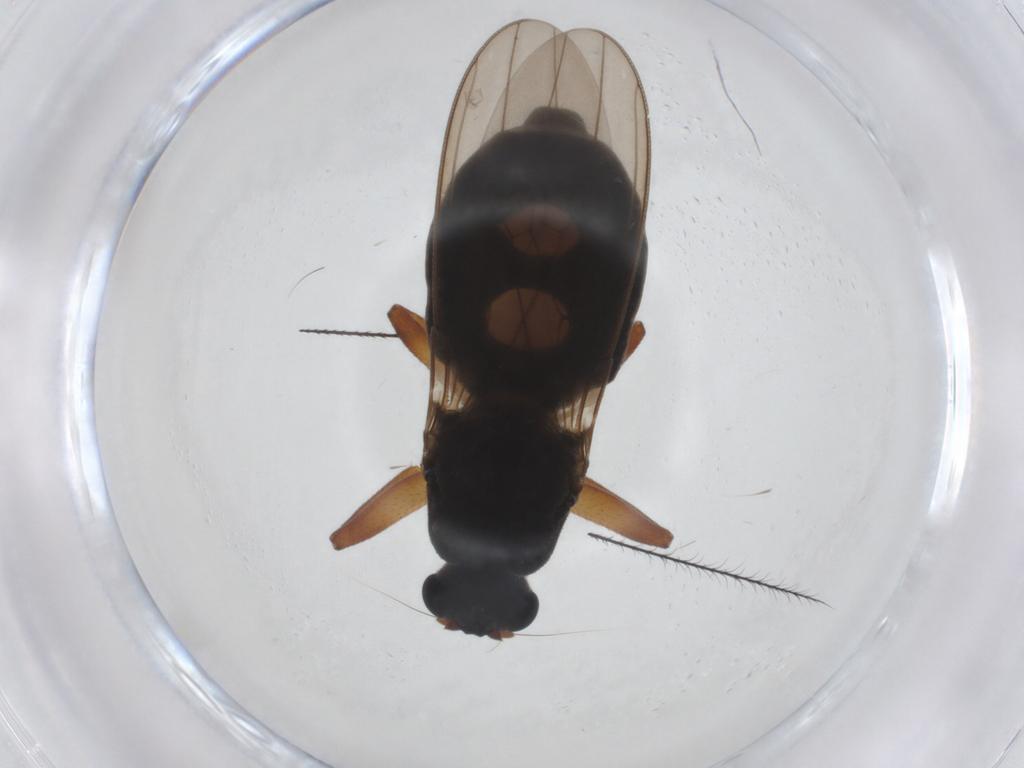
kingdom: Animalia
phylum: Arthropoda
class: Insecta
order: Diptera
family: Sphaeroceridae
